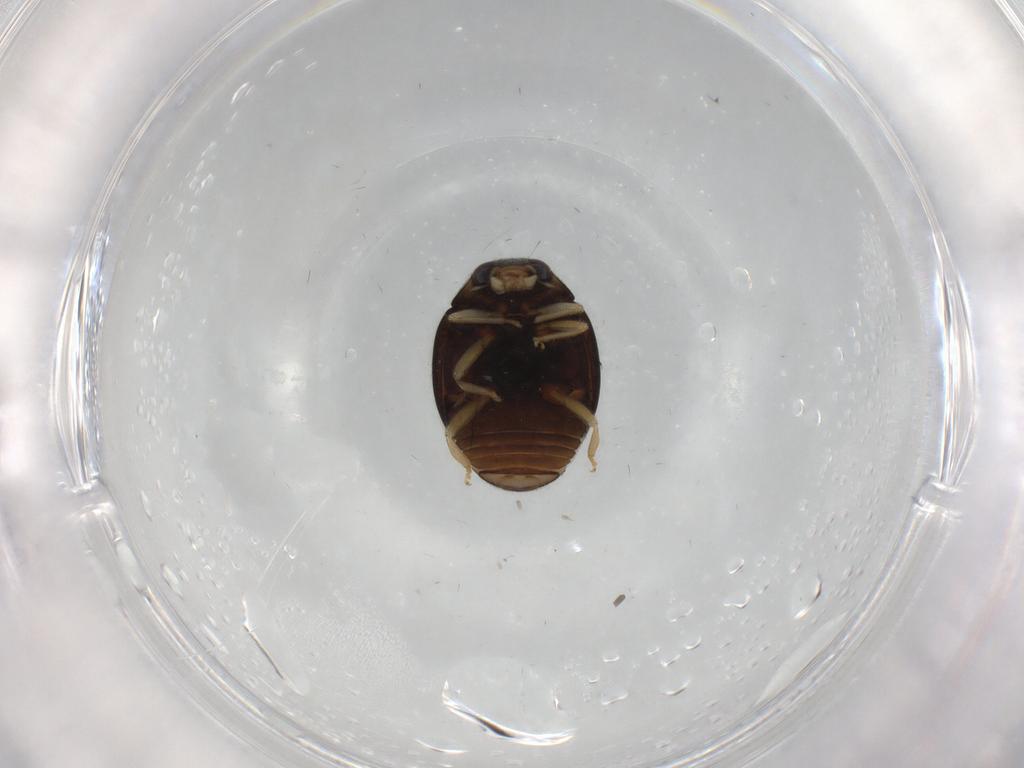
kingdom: Animalia
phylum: Arthropoda
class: Insecta
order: Coleoptera
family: Coccinellidae
